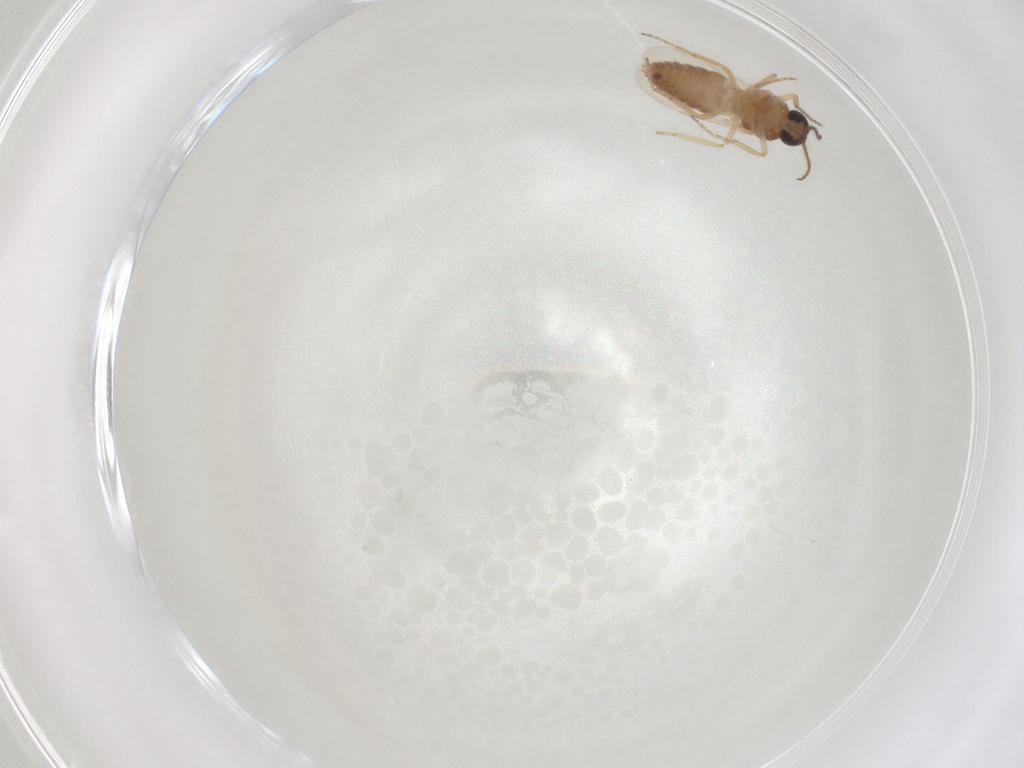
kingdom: Animalia
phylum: Arthropoda
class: Insecta
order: Diptera
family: Ceratopogonidae
